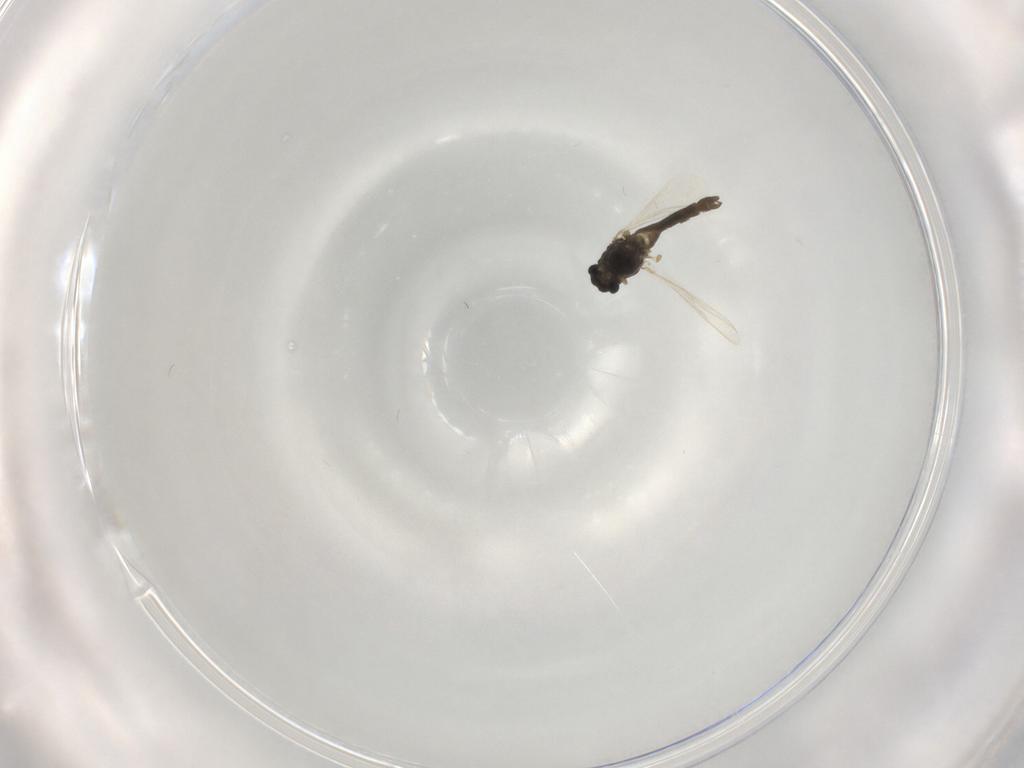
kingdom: Animalia
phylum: Arthropoda
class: Insecta
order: Diptera
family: Chironomidae
